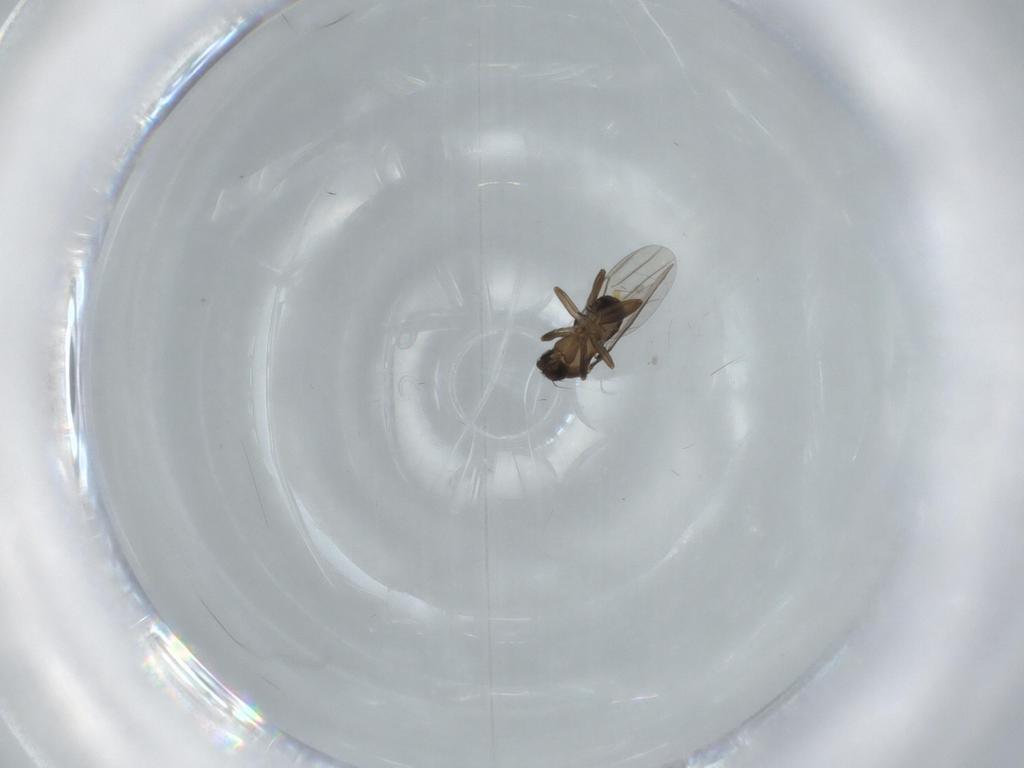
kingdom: Animalia
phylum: Arthropoda
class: Insecta
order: Diptera
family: Phoridae
